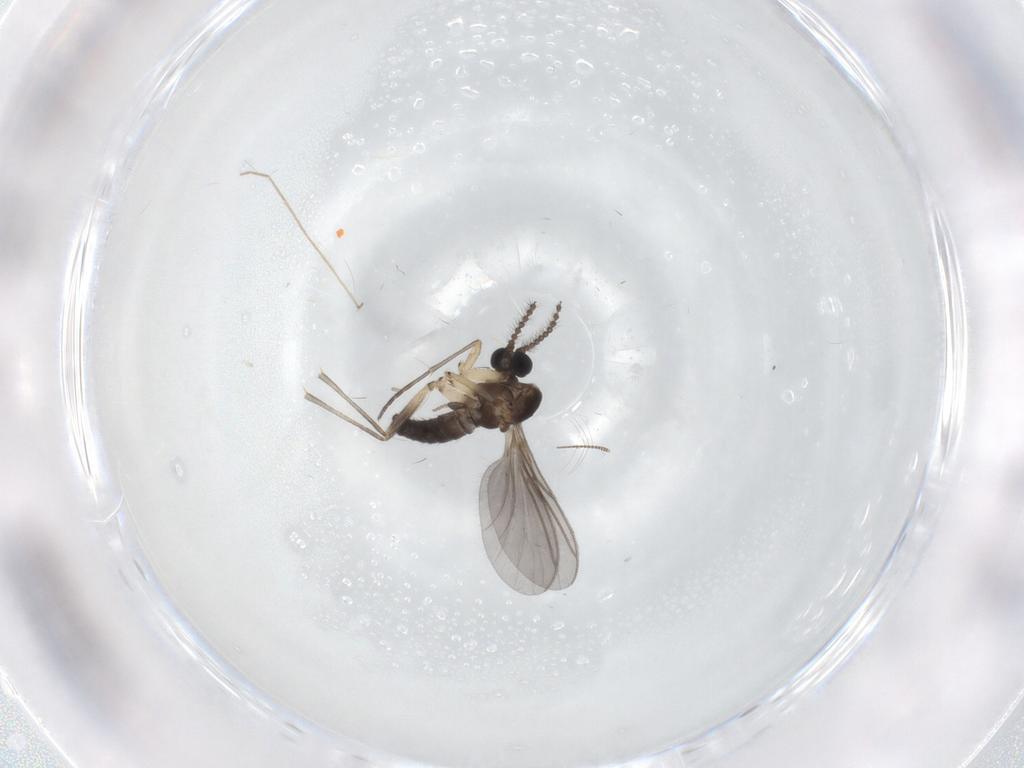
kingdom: Animalia
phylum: Arthropoda
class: Insecta
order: Diptera
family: Sciaridae
